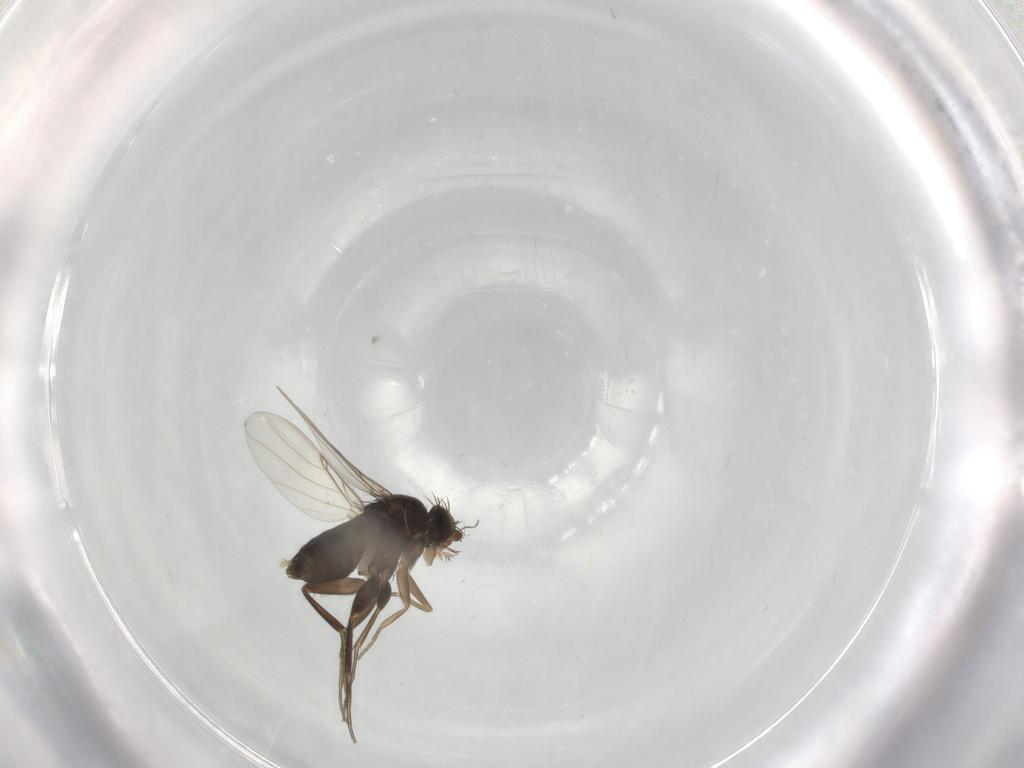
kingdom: Animalia
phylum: Arthropoda
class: Insecta
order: Diptera
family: Phoridae
